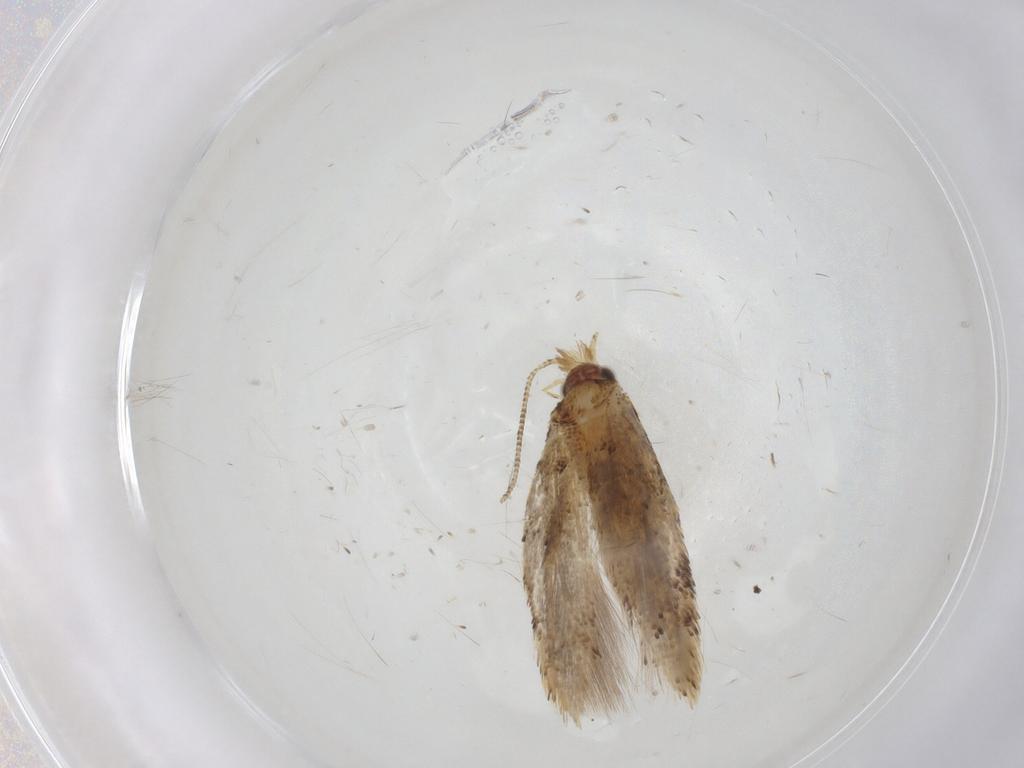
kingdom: Animalia
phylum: Arthropoda
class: Insecta
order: Lepidoptera
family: Tineidae
